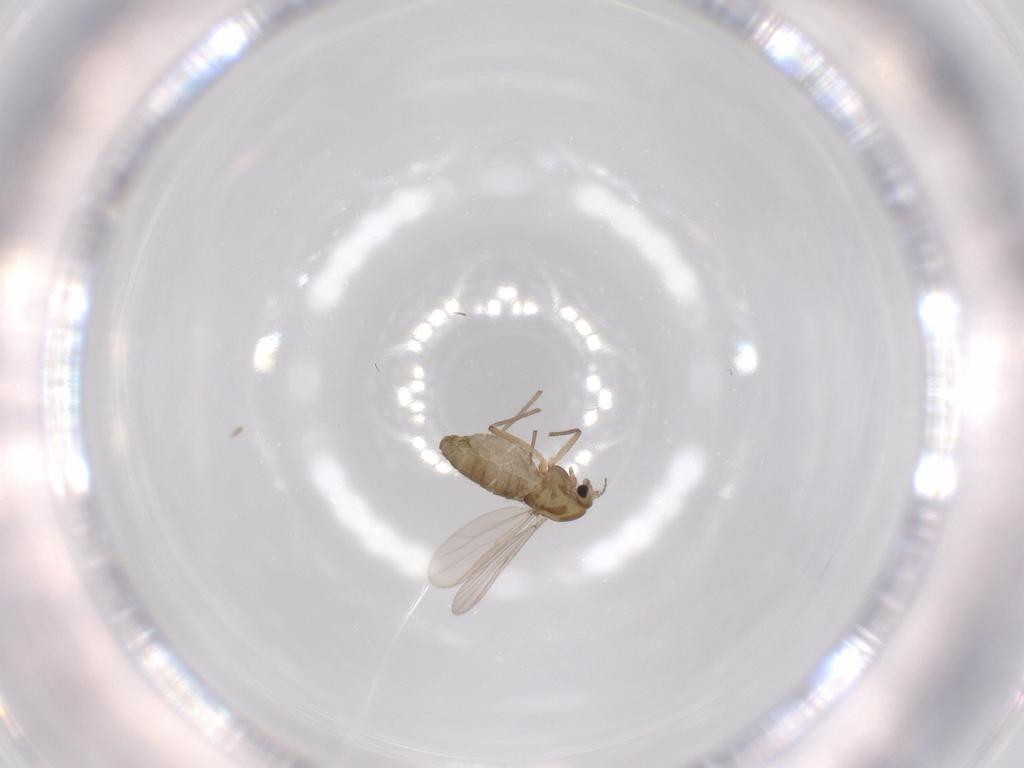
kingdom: Animalia
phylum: Arthropoda
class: Insecta
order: Diptera
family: Chironomidae
